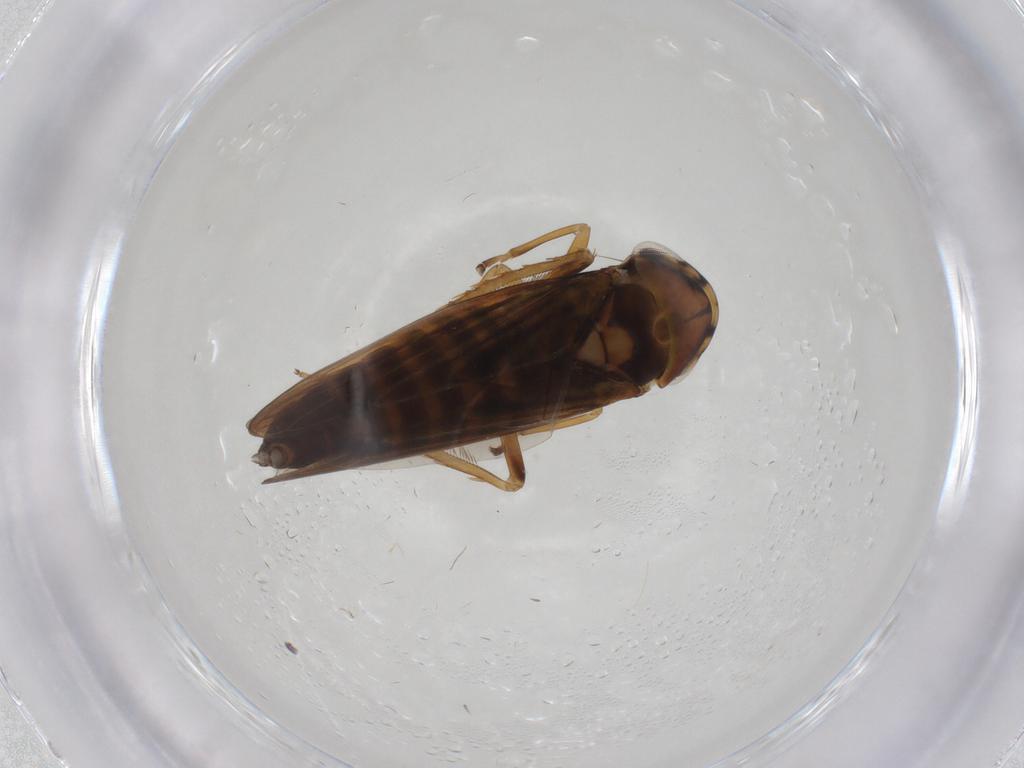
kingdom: Animalia
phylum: Arthropoda
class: Insecta
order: Hemiptera
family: Cicadellidae
